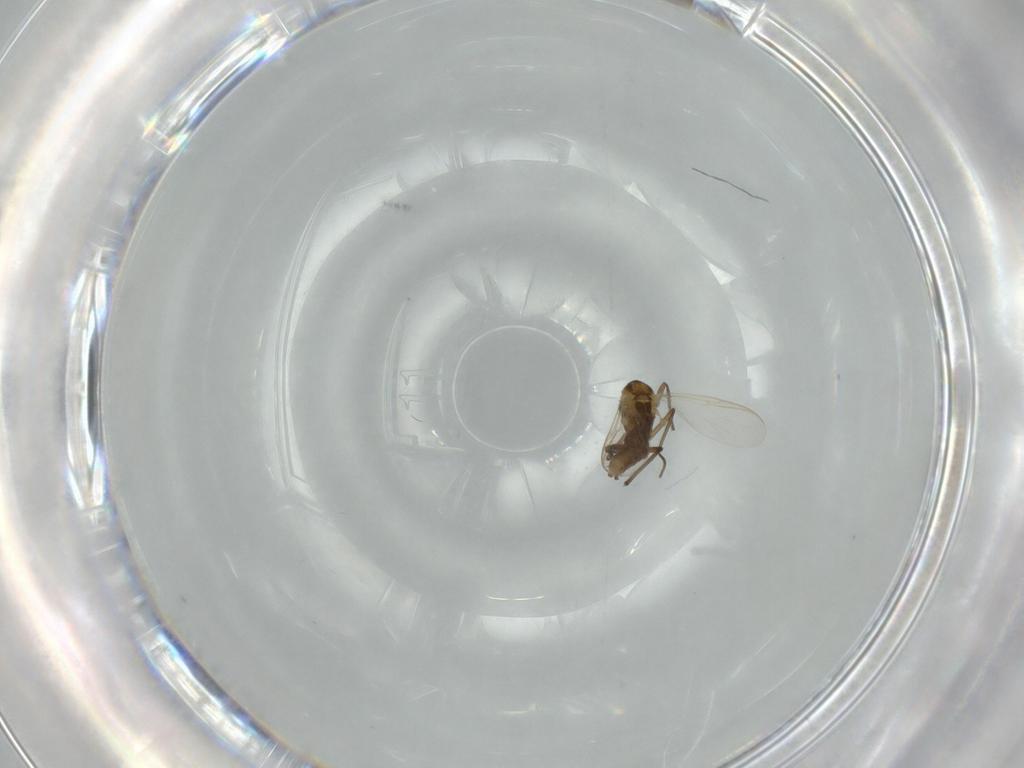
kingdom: Animalia
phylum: Arthropoda
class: Insecta
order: Diptera
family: Chironomidae
